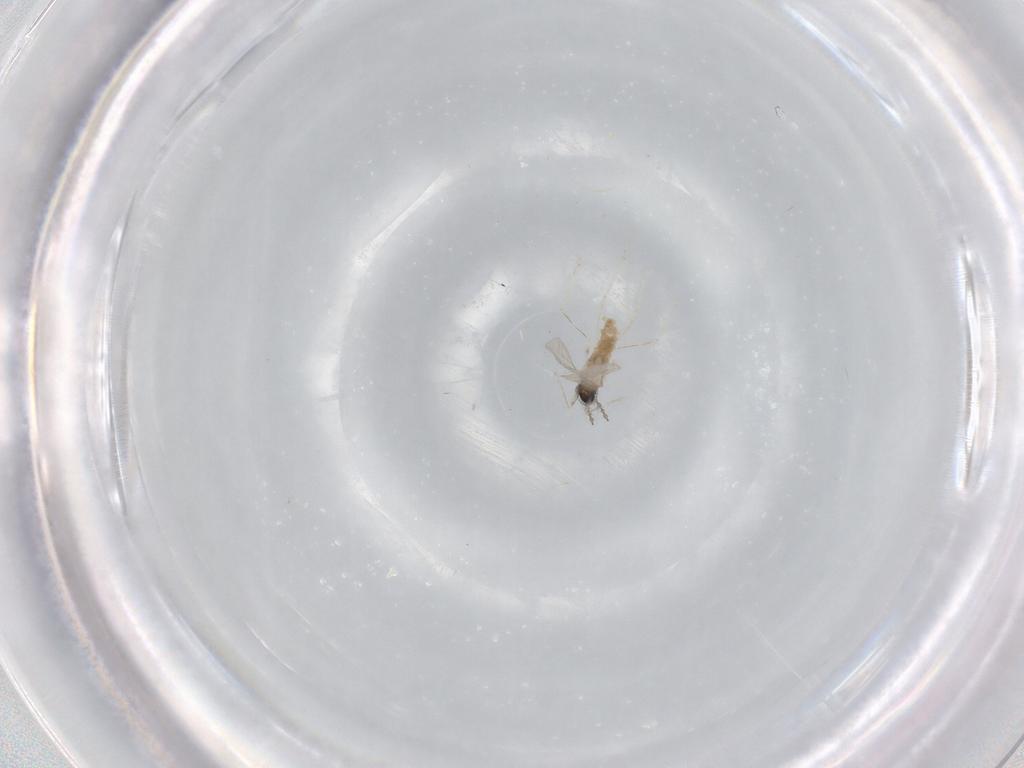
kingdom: Animalia
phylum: Arthropoda
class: Insecta
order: Diptera
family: Cecidomyiidae
